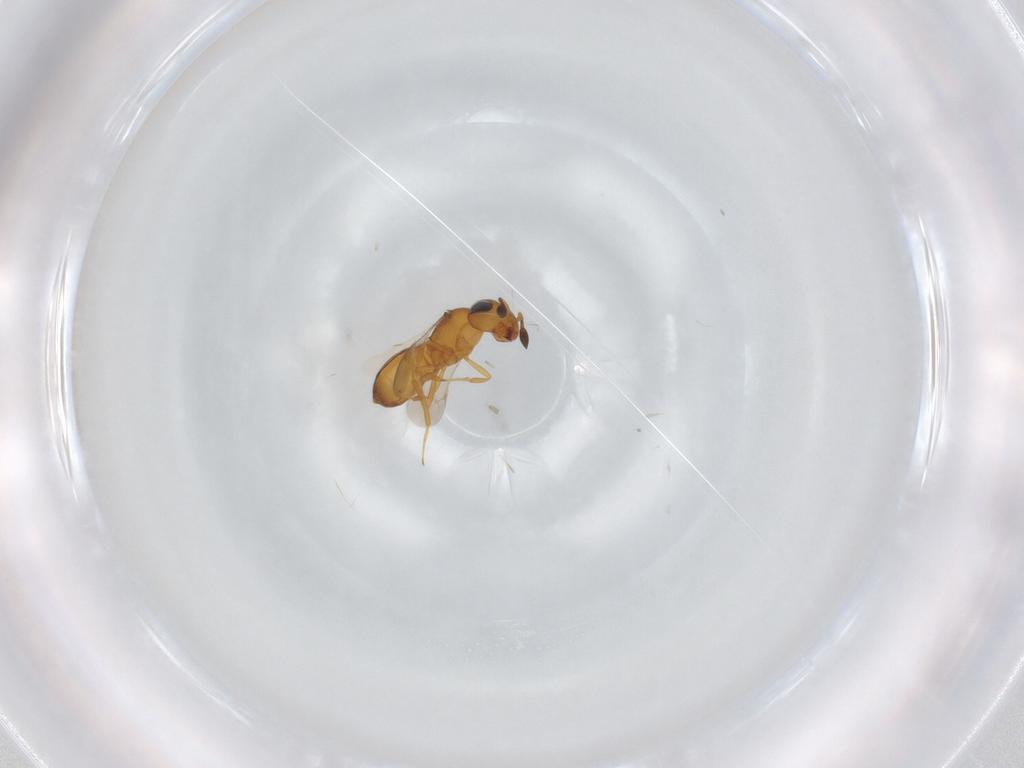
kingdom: Animalia
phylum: Arthropoda
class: Insecta
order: Hymenoptera
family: Scelionidae
